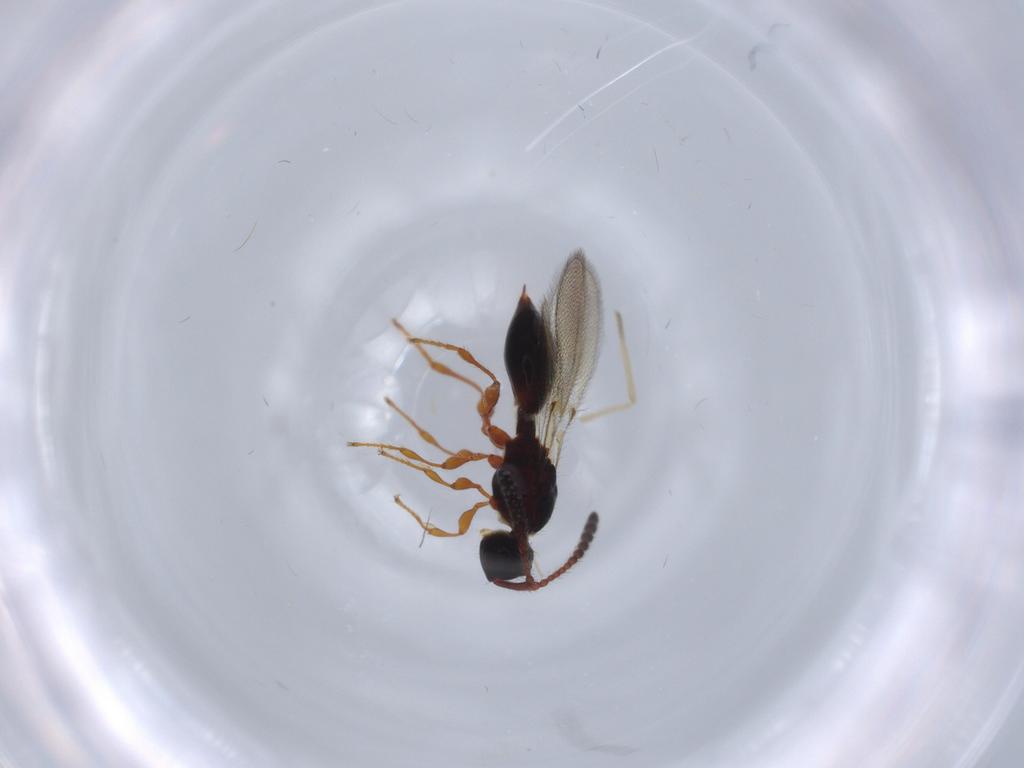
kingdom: Animalia
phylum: Arthropoda
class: Insecta
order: Hymenoptera
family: Diapriidae
